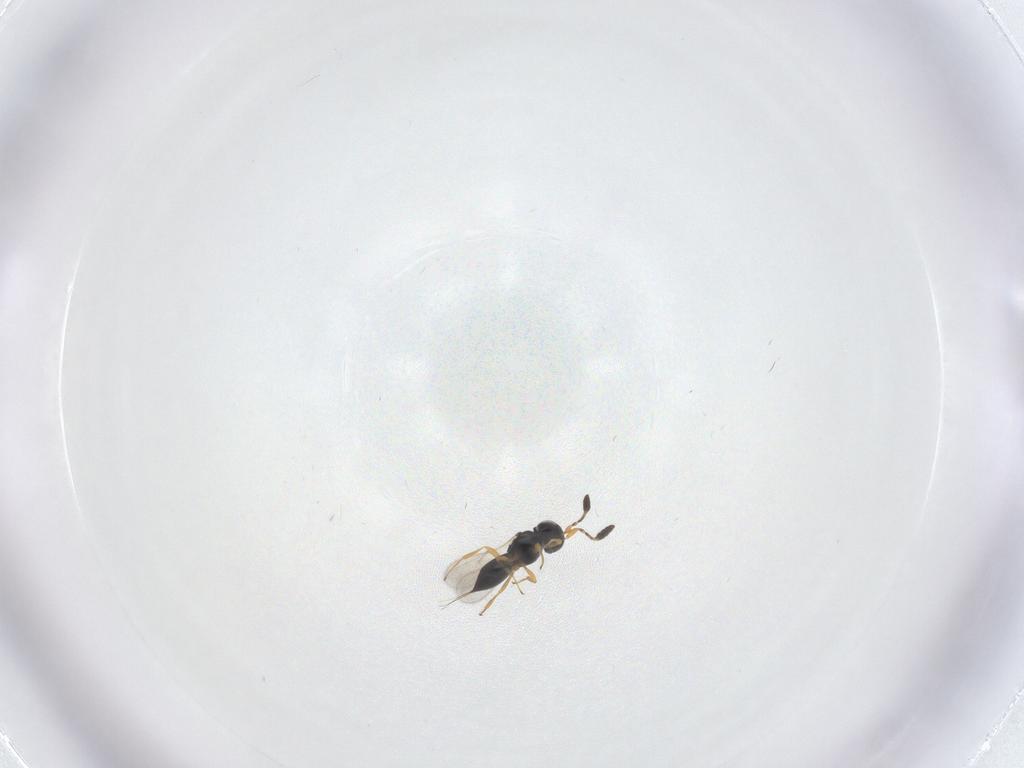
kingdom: Animalia
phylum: Arthropoda
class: Insecta
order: Hymenoptera
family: Scelionidae
